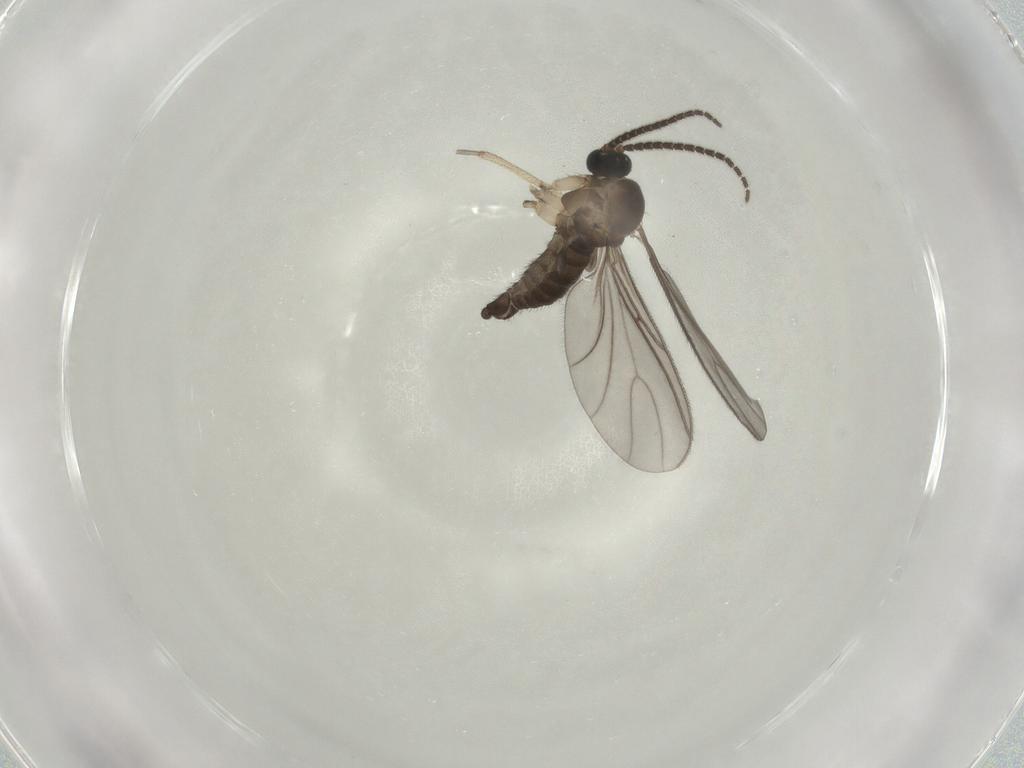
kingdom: Animalia
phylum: Arthropoda
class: Insecta
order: Diptera
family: Sciaridae
